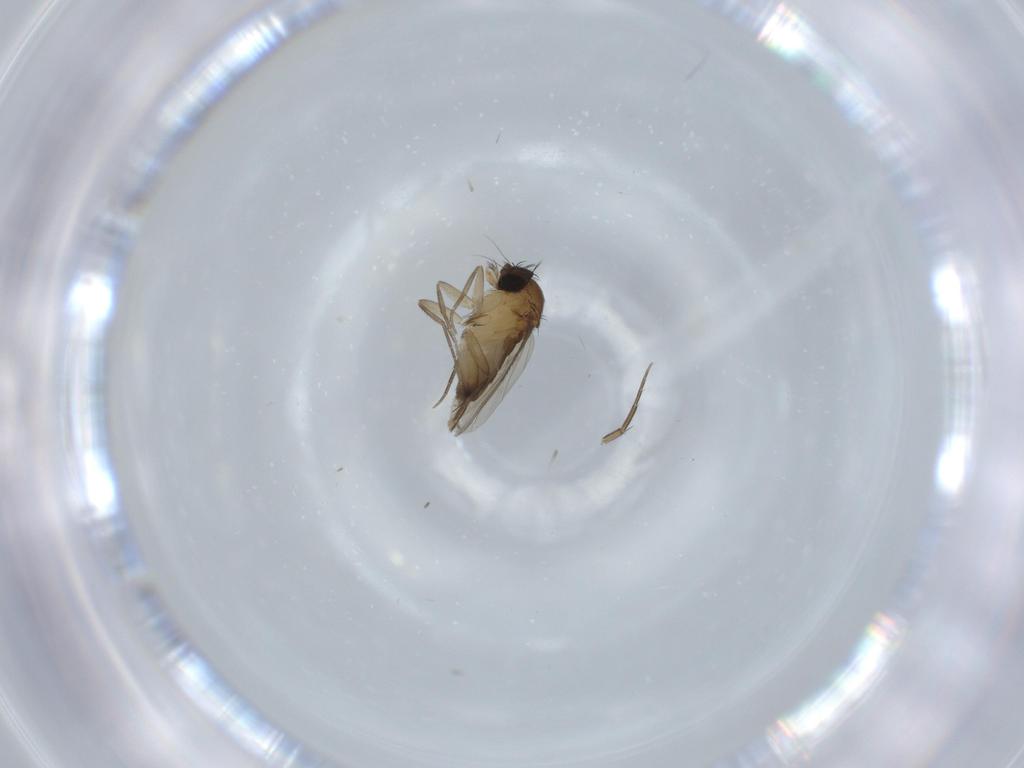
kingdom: Animalia
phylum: Arthropoda
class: Insecta
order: Diptera
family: Phoridae
